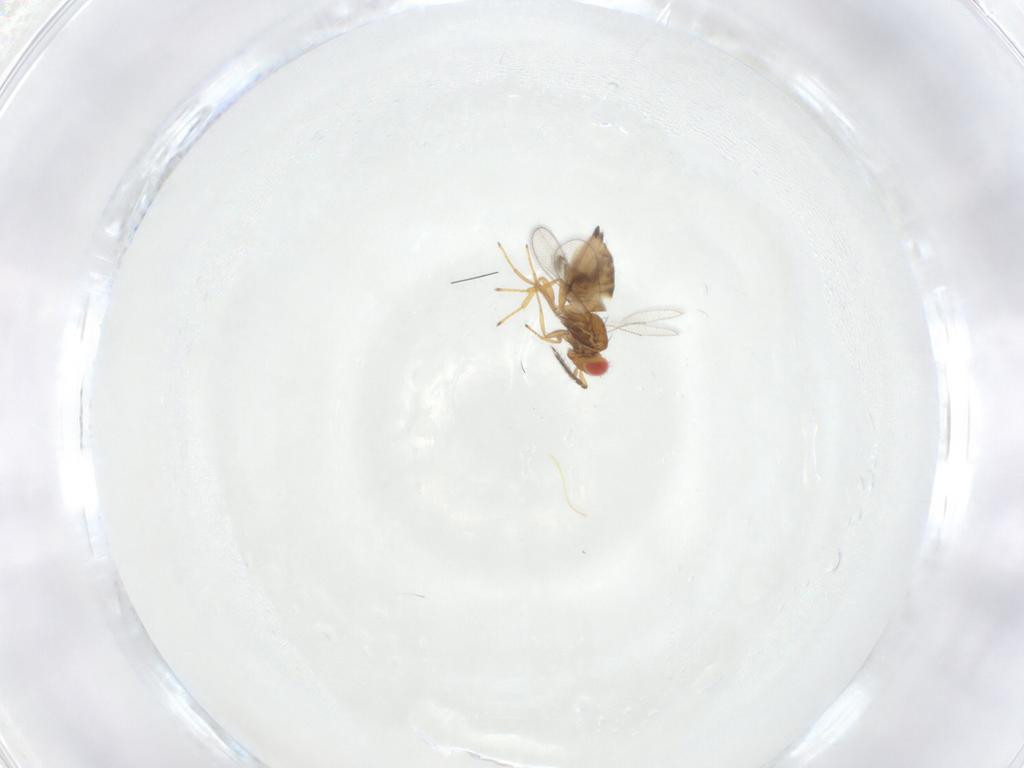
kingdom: Animalia
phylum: Arthropoda
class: Insecta
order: Hymenoptera
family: Eulophidae
